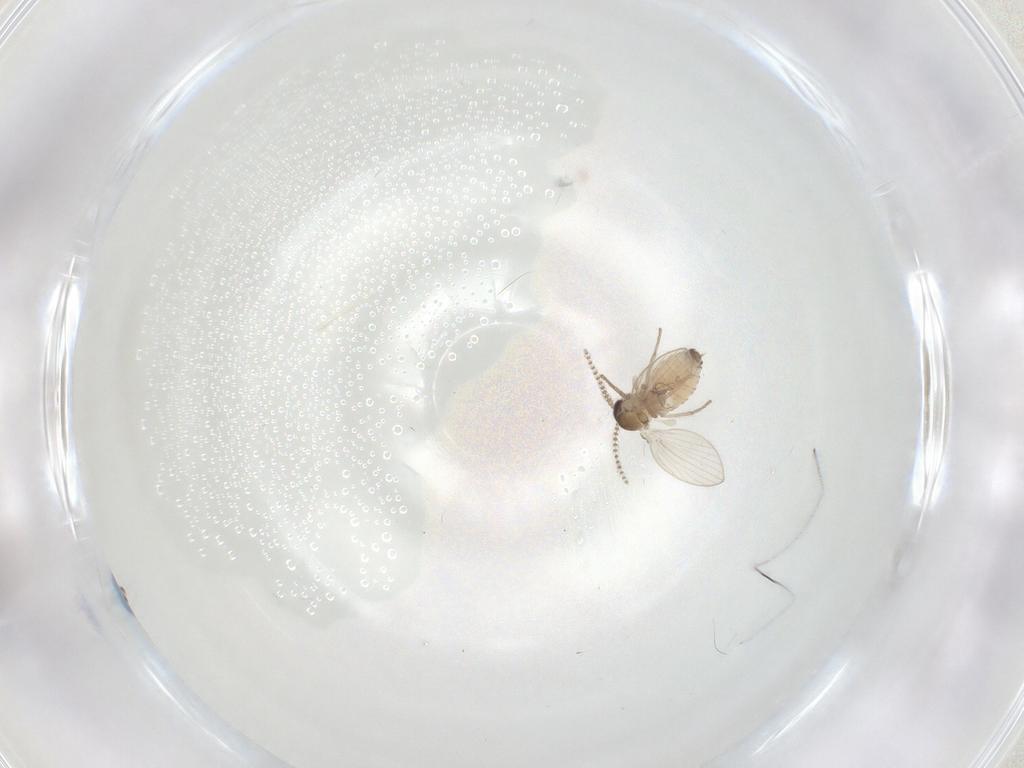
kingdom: Animalia
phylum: Arthropoda
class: Insecta
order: Diptera
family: Psychodidae
